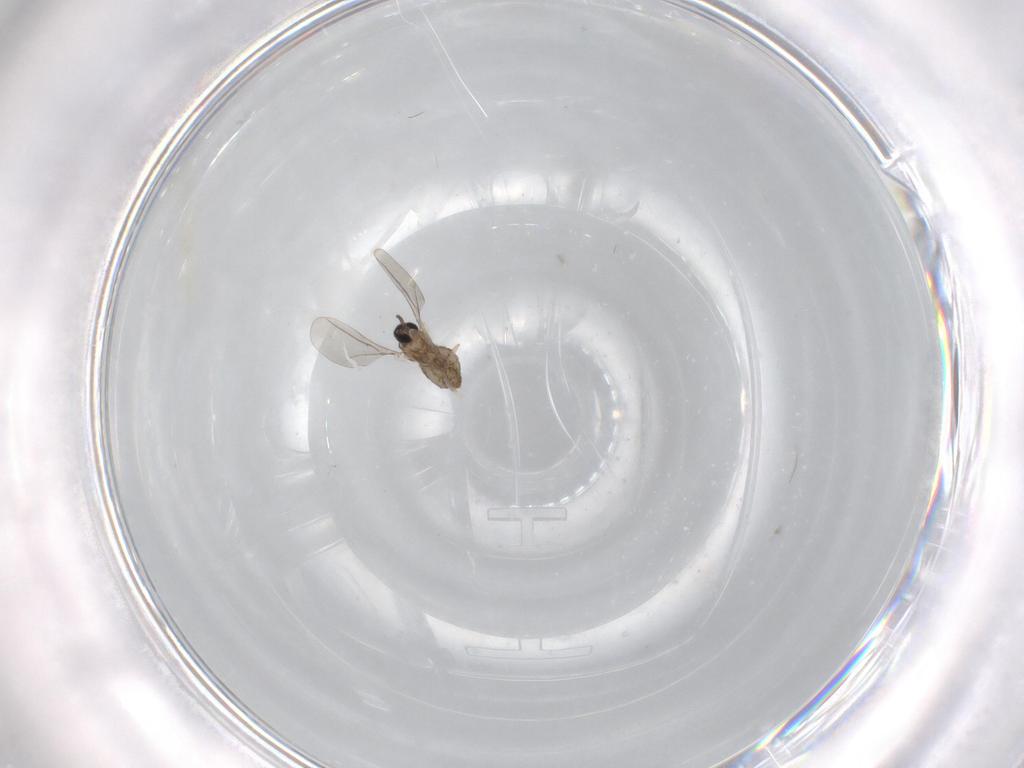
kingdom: Animalia
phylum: Arthropoda
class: Insecta
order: Diptera
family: Cecidomyiidae
